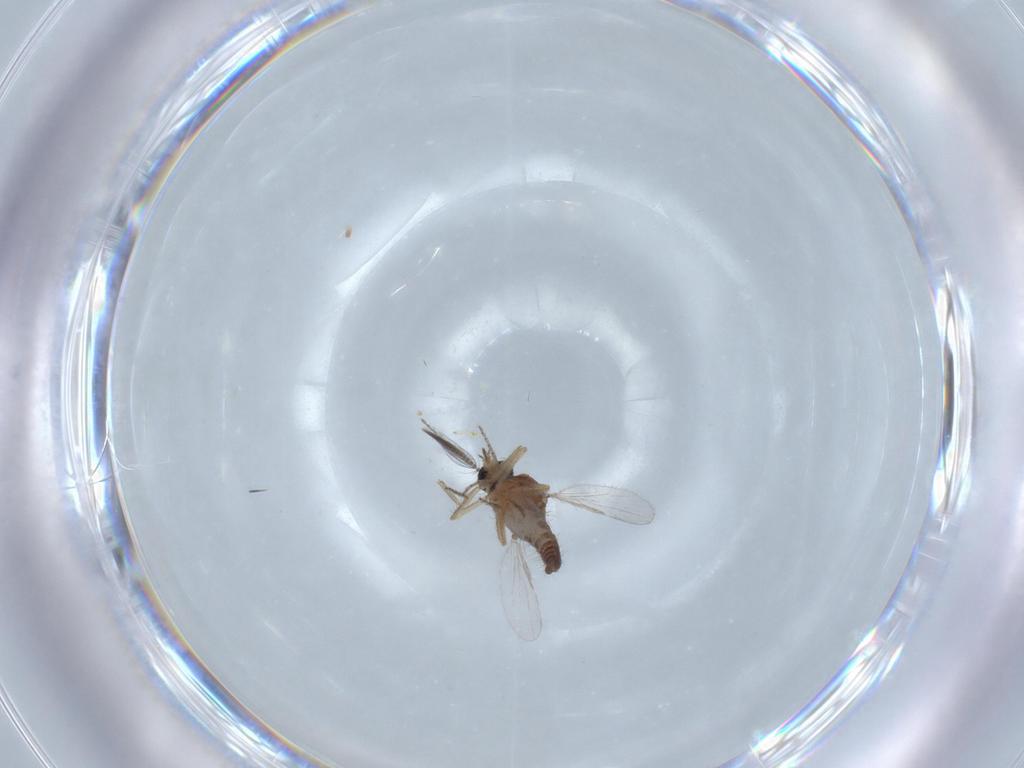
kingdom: Animalia
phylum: Arthropoda
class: Insecta
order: Diptera
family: Ceratopogonidae
